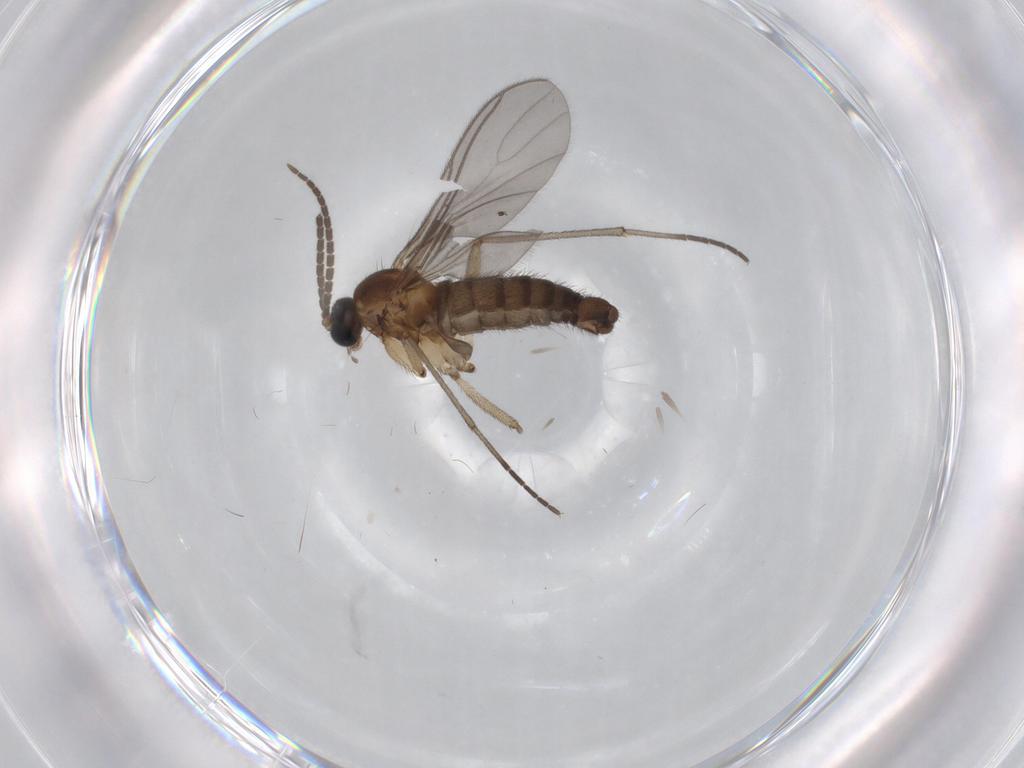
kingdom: Animalia
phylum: Arthropoda
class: Insecta
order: Diptera
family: Sciaridae
